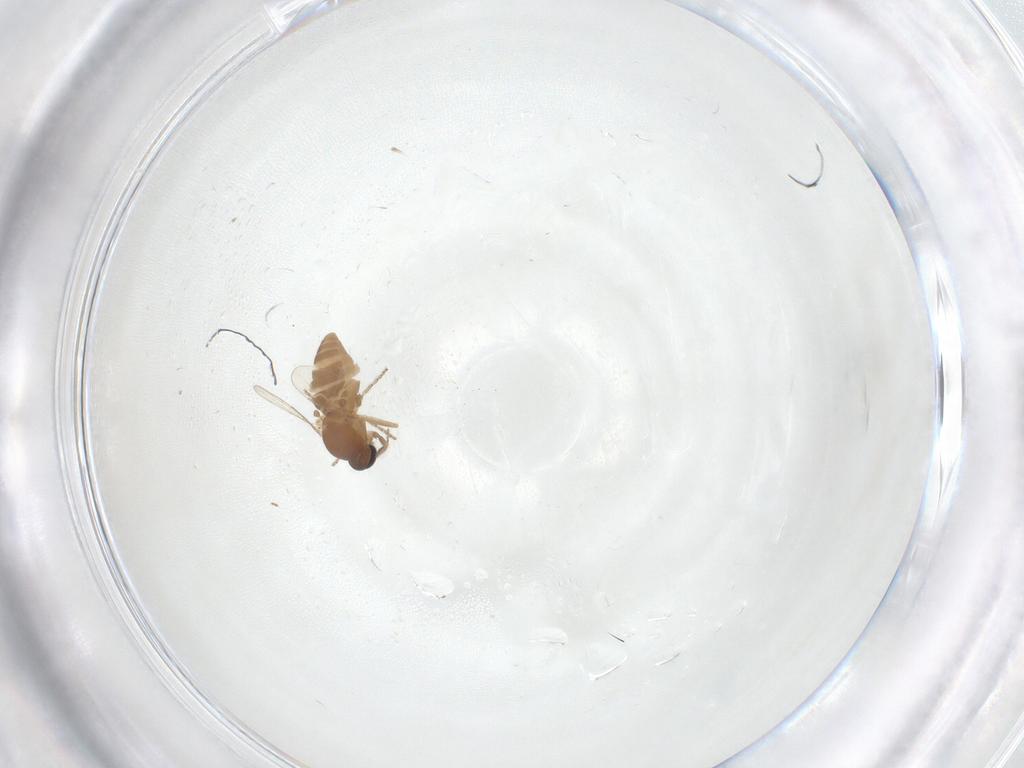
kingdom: Animalia
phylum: Arthropoda
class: Insecta
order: Diptera
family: Ceratopogonidae
